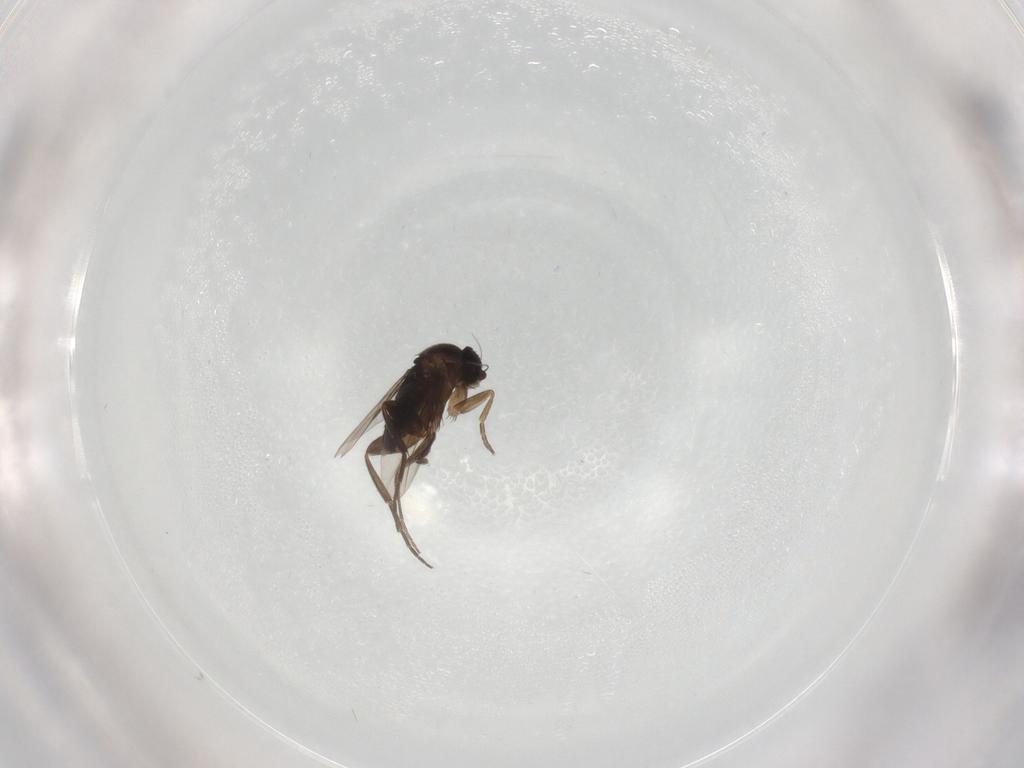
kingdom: Animalia
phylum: Arthropoda
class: Insecta
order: Diptera
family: Phoridae
